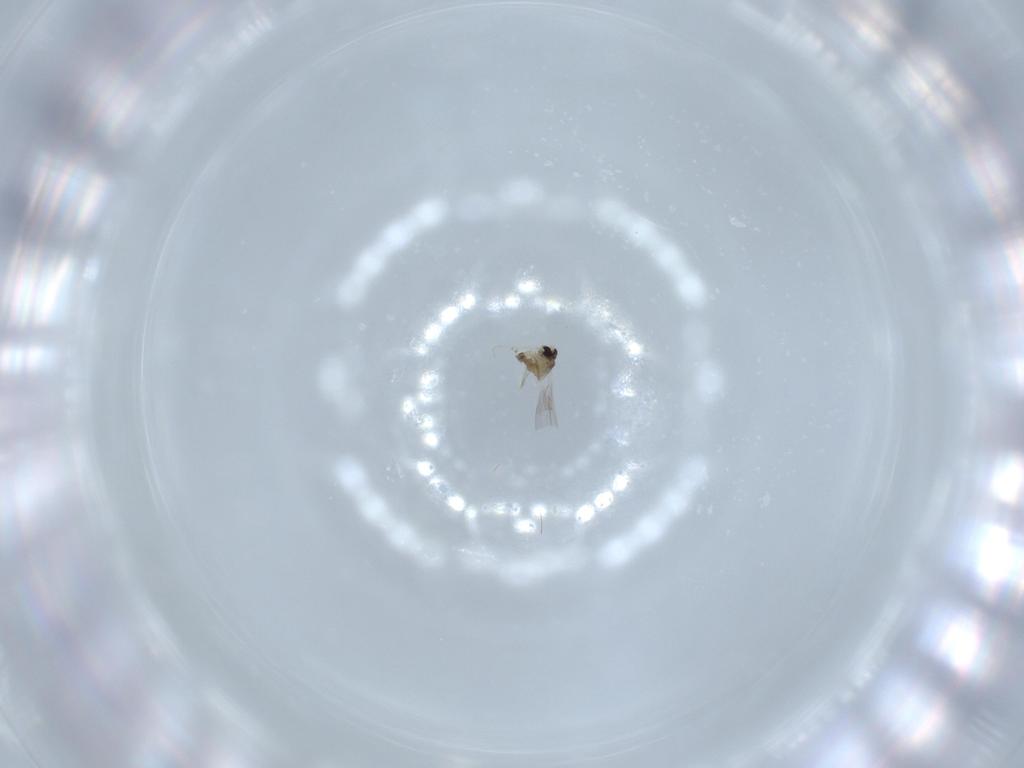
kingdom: Animalia
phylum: Arthropoda
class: Insecta
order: Diptera
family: Cecidomyiidae
